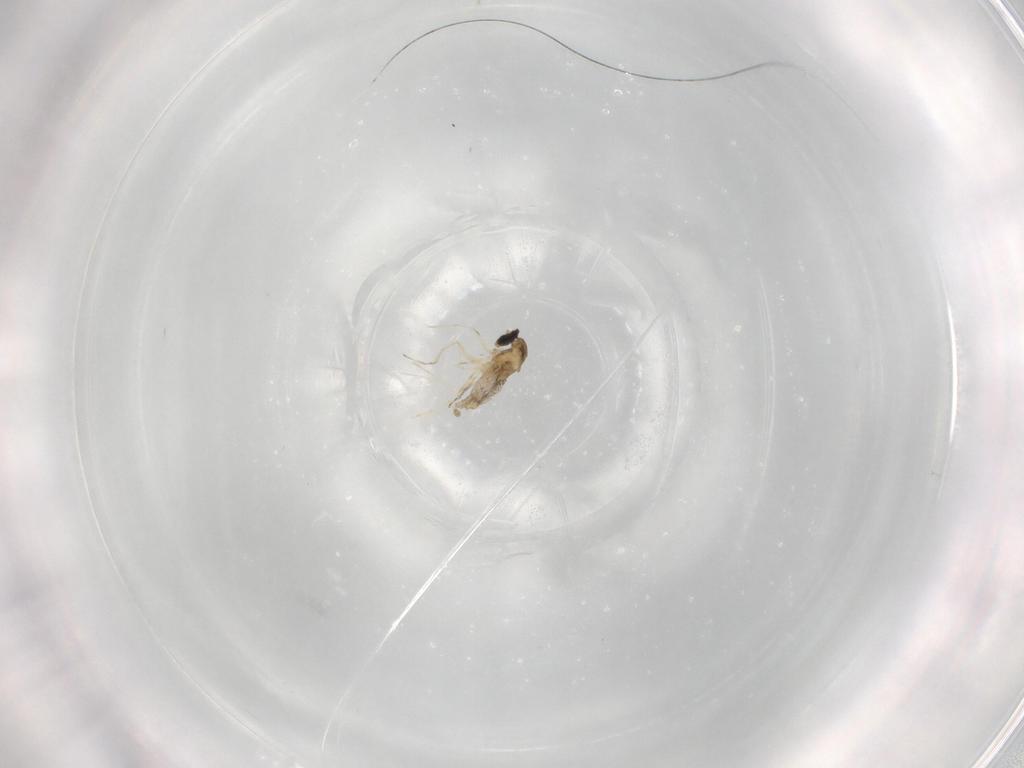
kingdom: Animalia
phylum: Arthropoda
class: Insecta
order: Diptera
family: Cecidomyiidae
